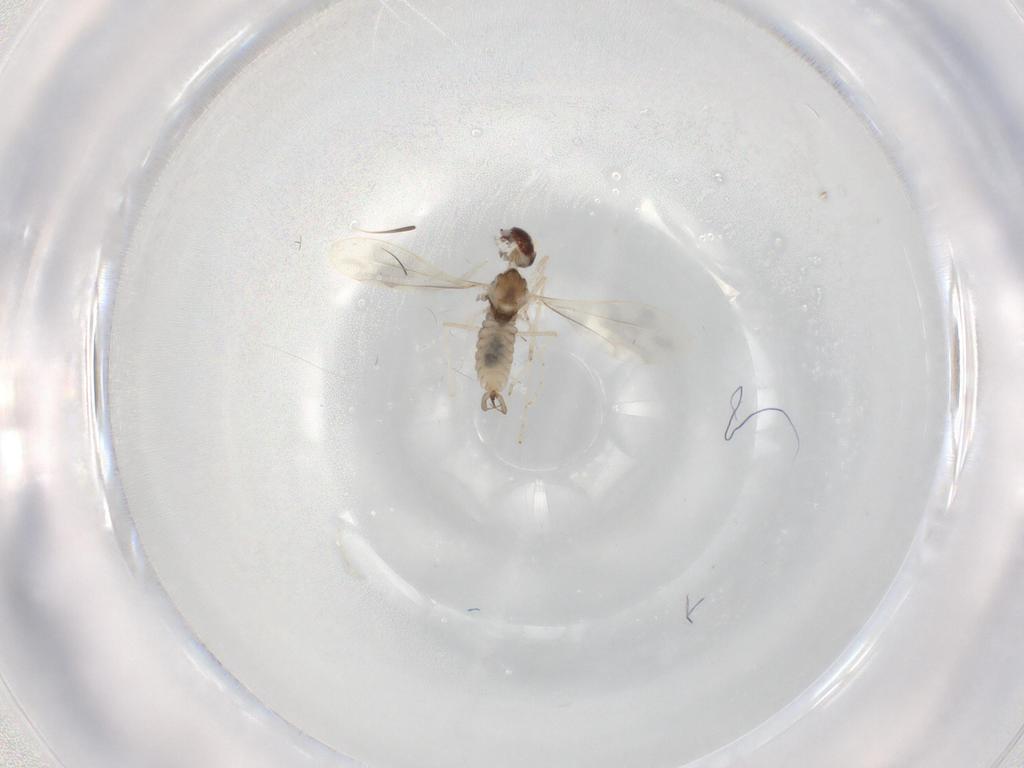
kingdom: Animalia
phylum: Arthropoda
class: Insecta
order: Diptera
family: Cecidomyiidae
